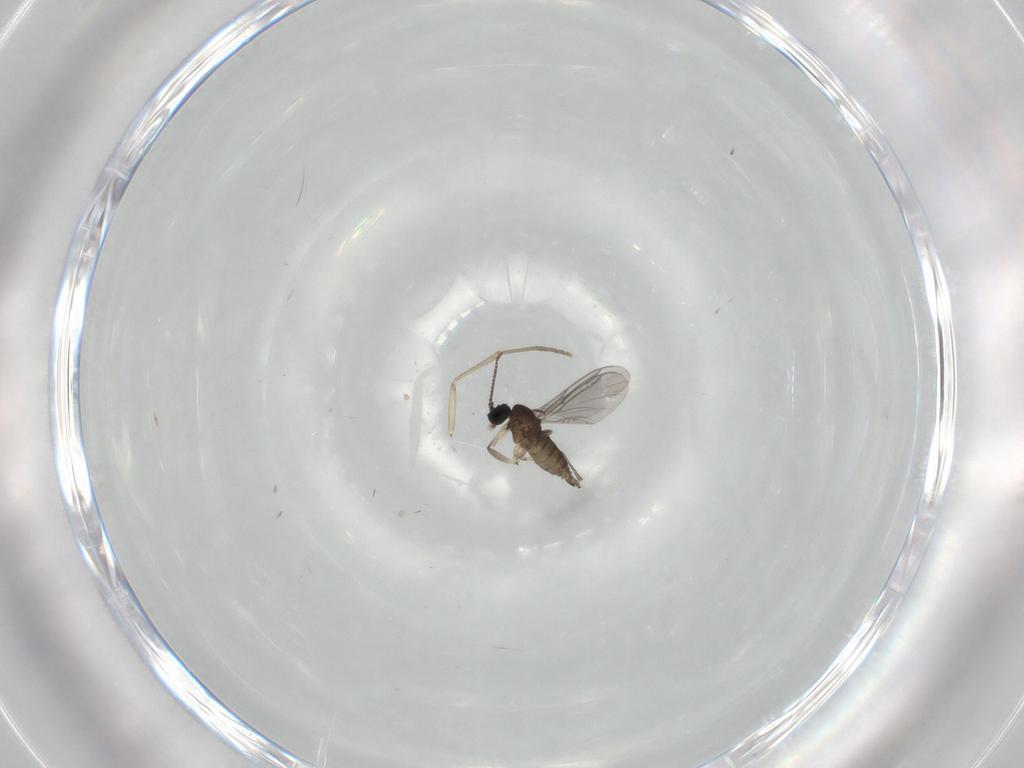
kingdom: Animalia
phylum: Arthropoda
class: Insecta
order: Diptera
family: Sciaridae
